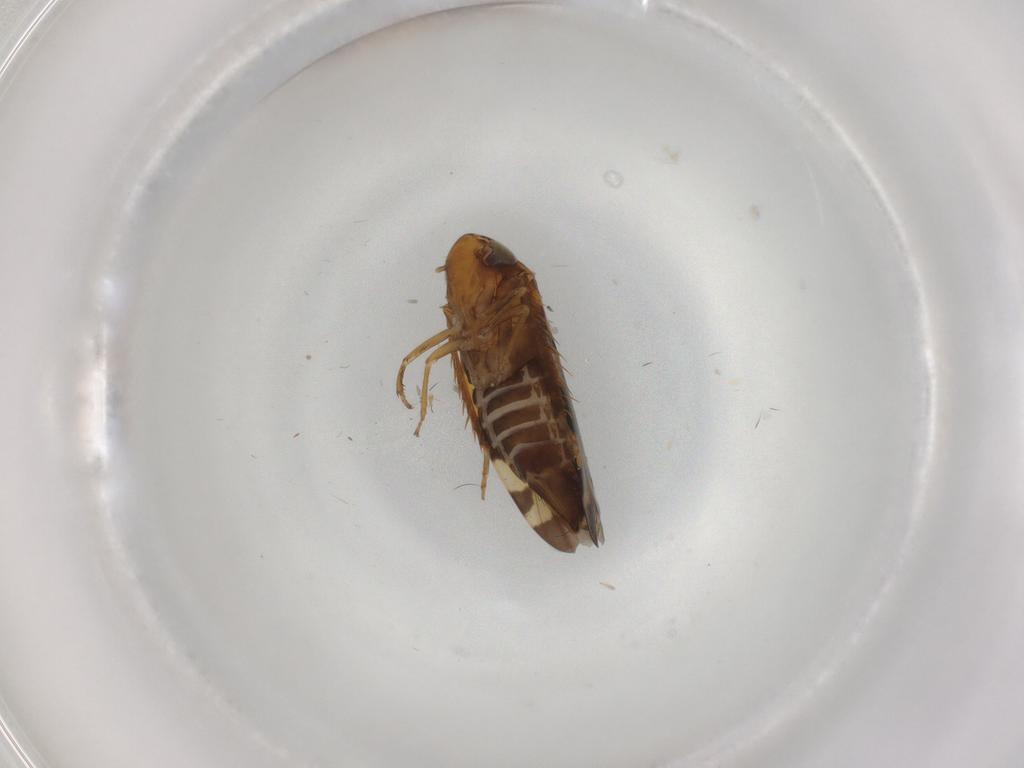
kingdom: Animalia
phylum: Arthropoda
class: Insecta
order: Hemiptera
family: Cicadellidae
